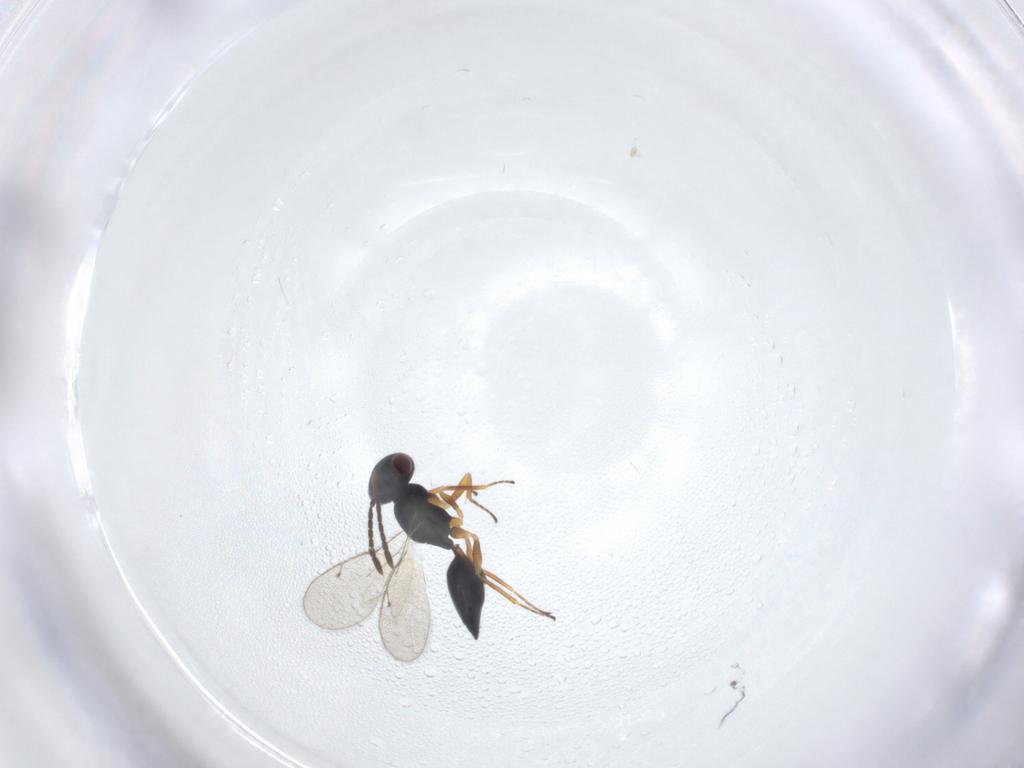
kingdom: Animalia
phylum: Arthropoda
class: Insecta
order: Hymenoptera
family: Pteromalidae
